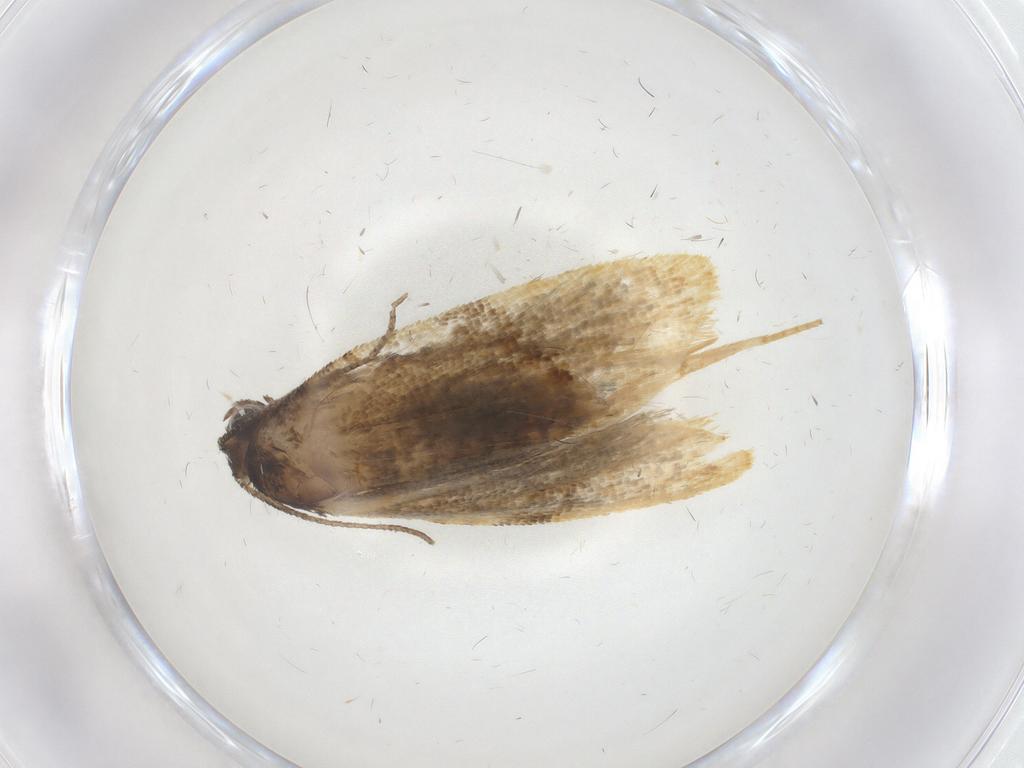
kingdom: Animalia
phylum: Arthropoda
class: Insecta
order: Lepidoptera
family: Tortricidae
